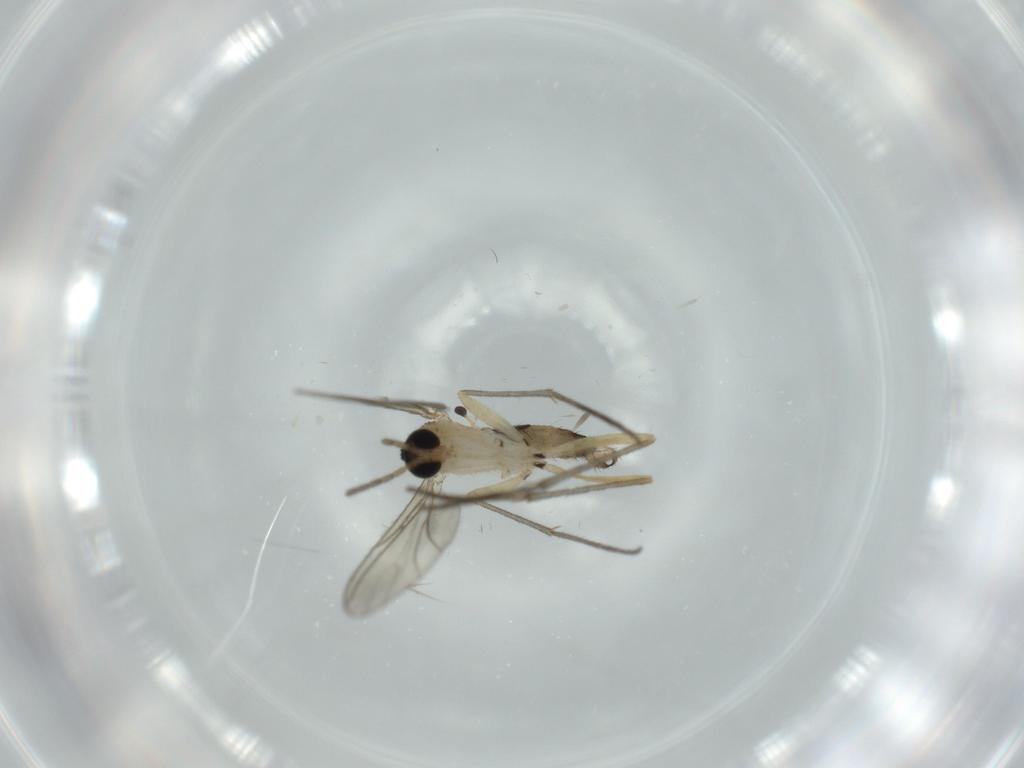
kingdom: Animalia
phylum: Arthropoda
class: Insecta
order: Diptera
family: Sciaridae
